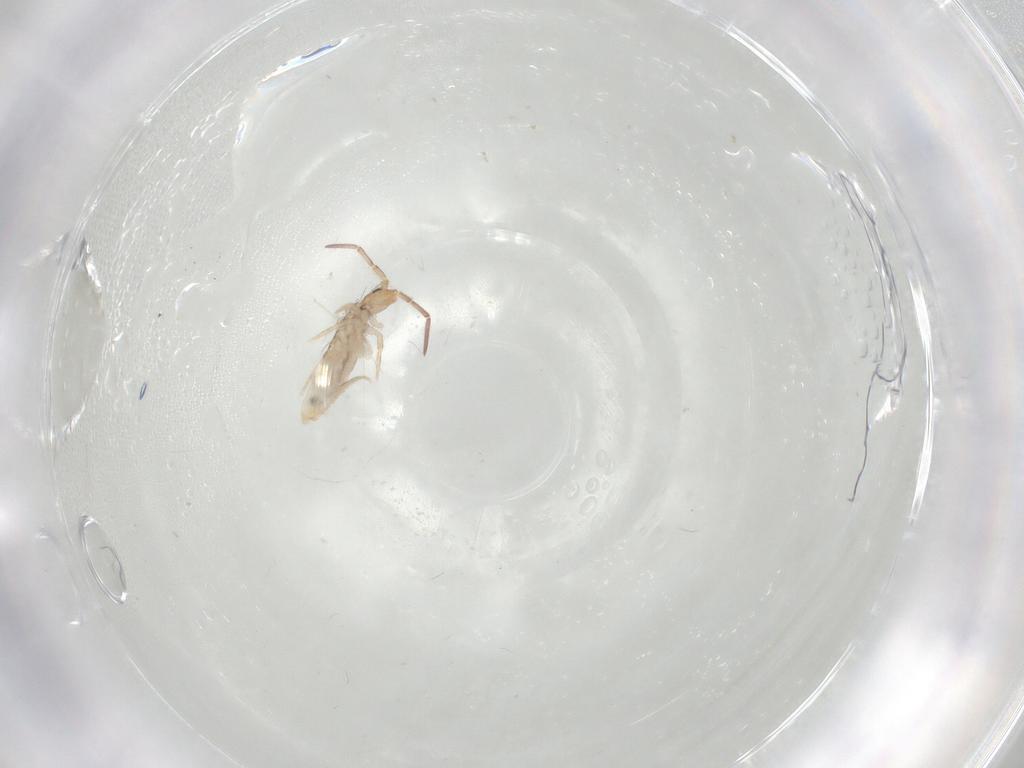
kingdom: Animalia
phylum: Arthropoda
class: Collembola
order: Entomobryomorpha
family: Entomobryidae
